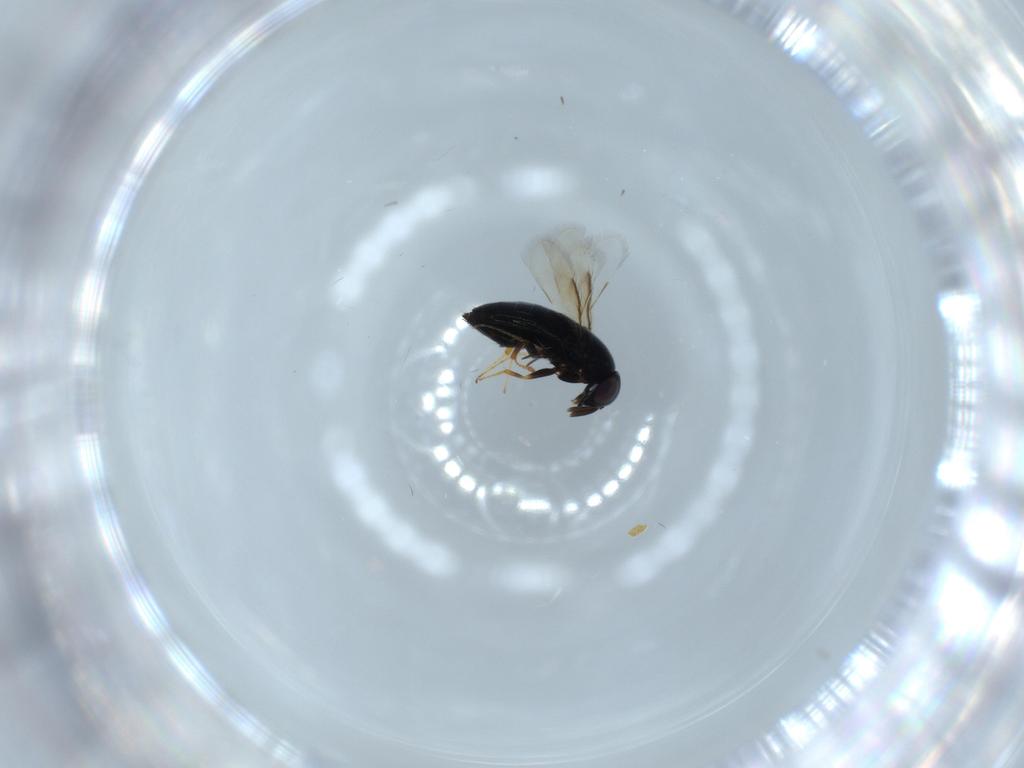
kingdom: Animalia
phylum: Arthropoda
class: Insecta
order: Hymenoptera
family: Signiphoridae
